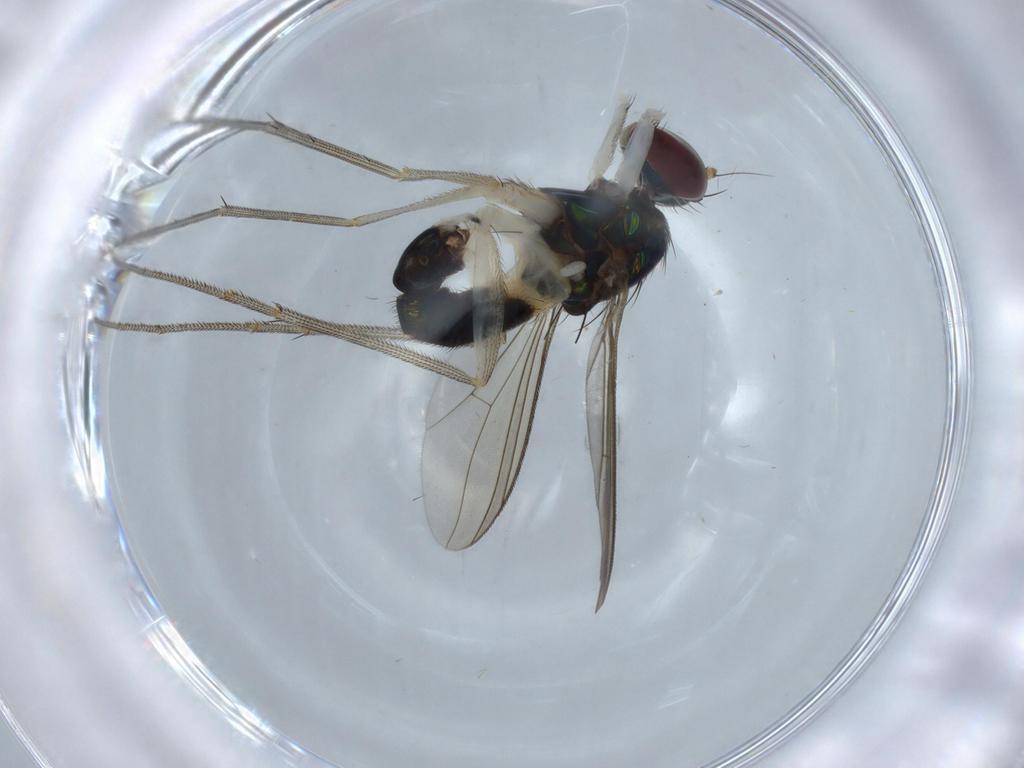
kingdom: Animalia
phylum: Arthropoda
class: Insecta
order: Diptera
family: Dolichopodidae
